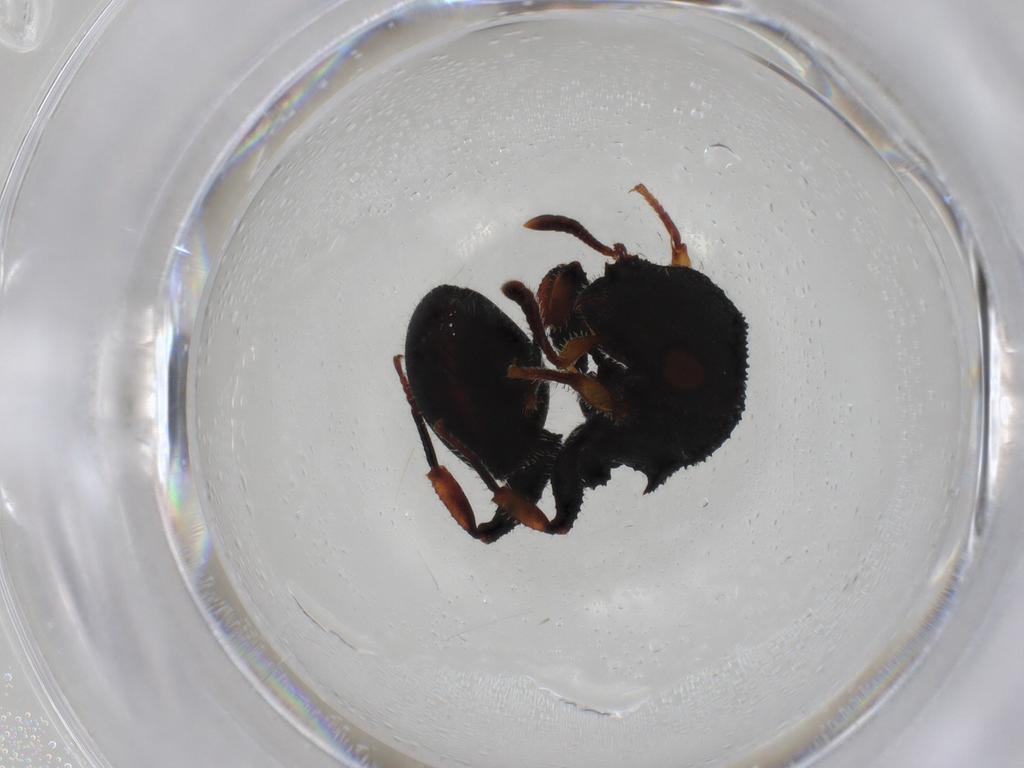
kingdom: Animalia
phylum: Arthropoda
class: Insecta
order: Hymenoptera
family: Formicidae
